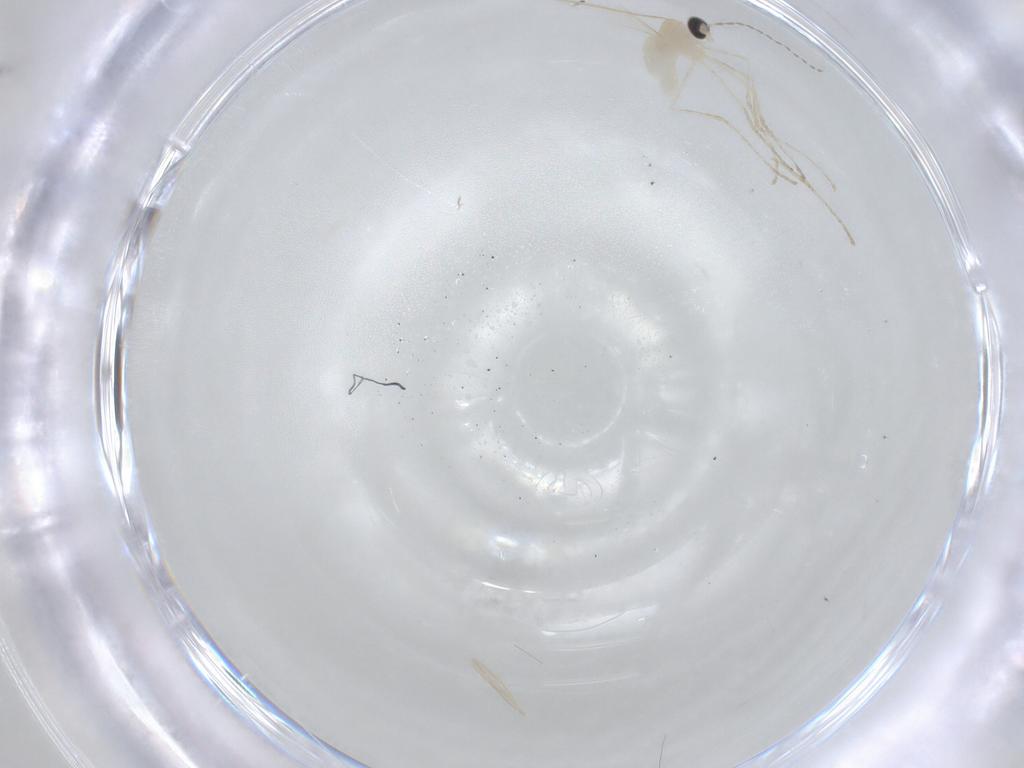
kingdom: Animalia
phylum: Arthropoda
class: Insecta
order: Diptera
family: Cecidomyiidae
